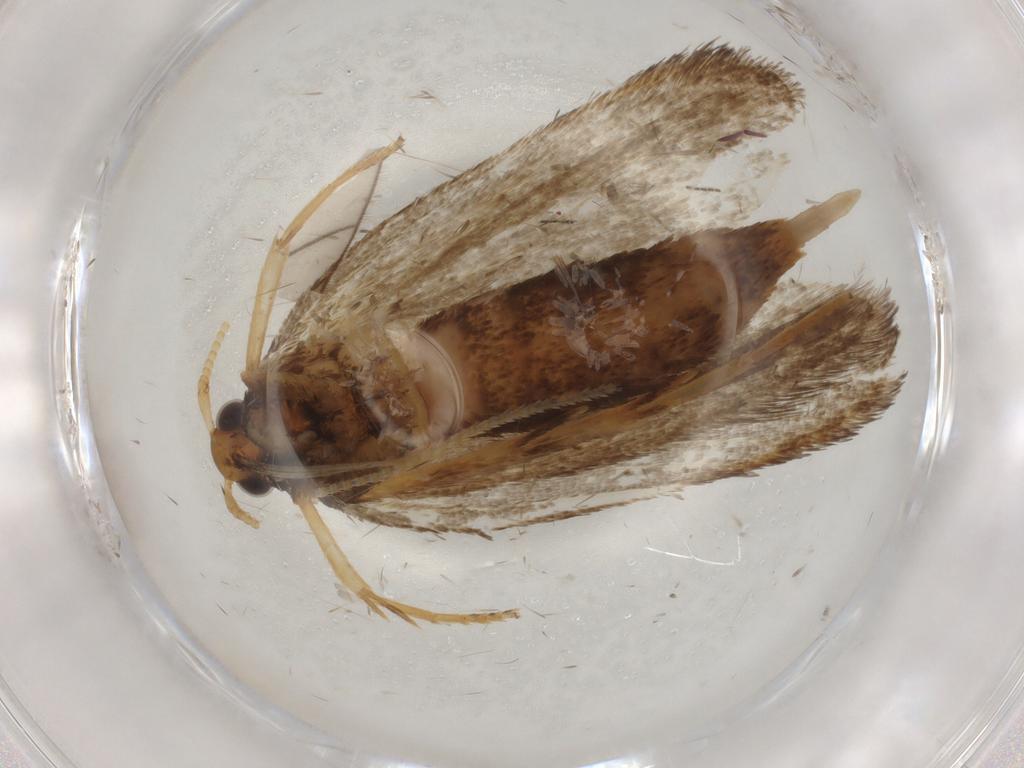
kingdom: Animalia
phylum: Arthropoda
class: Insecta
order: Lepidoptera
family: Lecithoceridae
